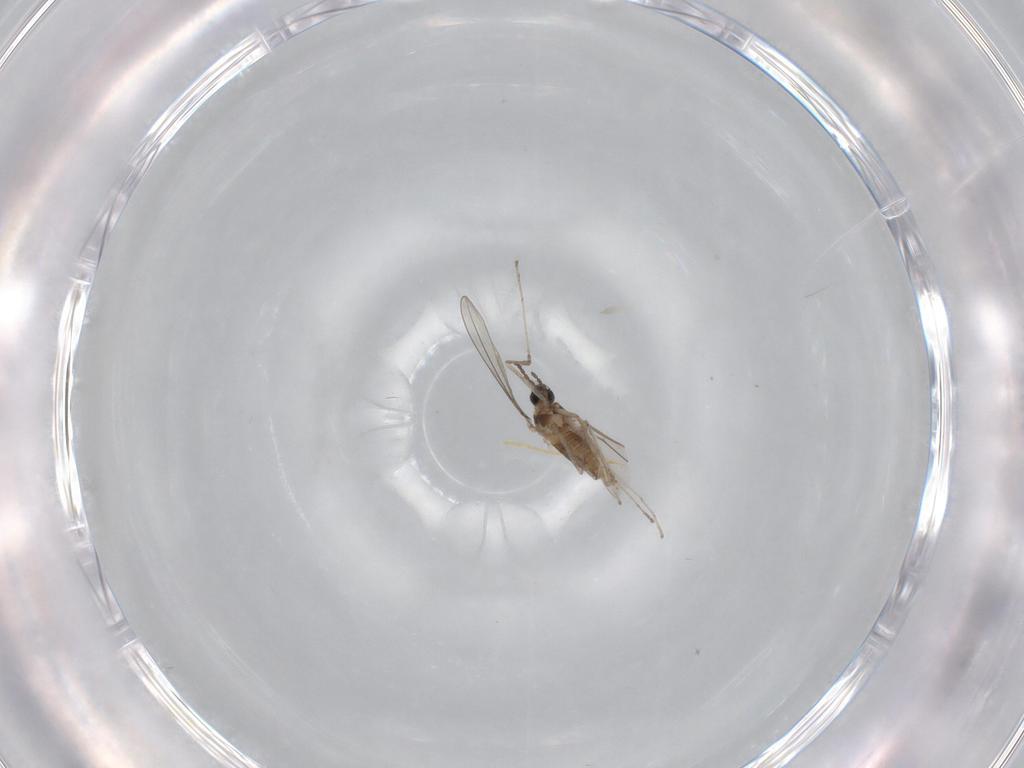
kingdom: Animalia
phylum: Arthropoda
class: Insecta
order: Diptera
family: Cecidomyiidae
